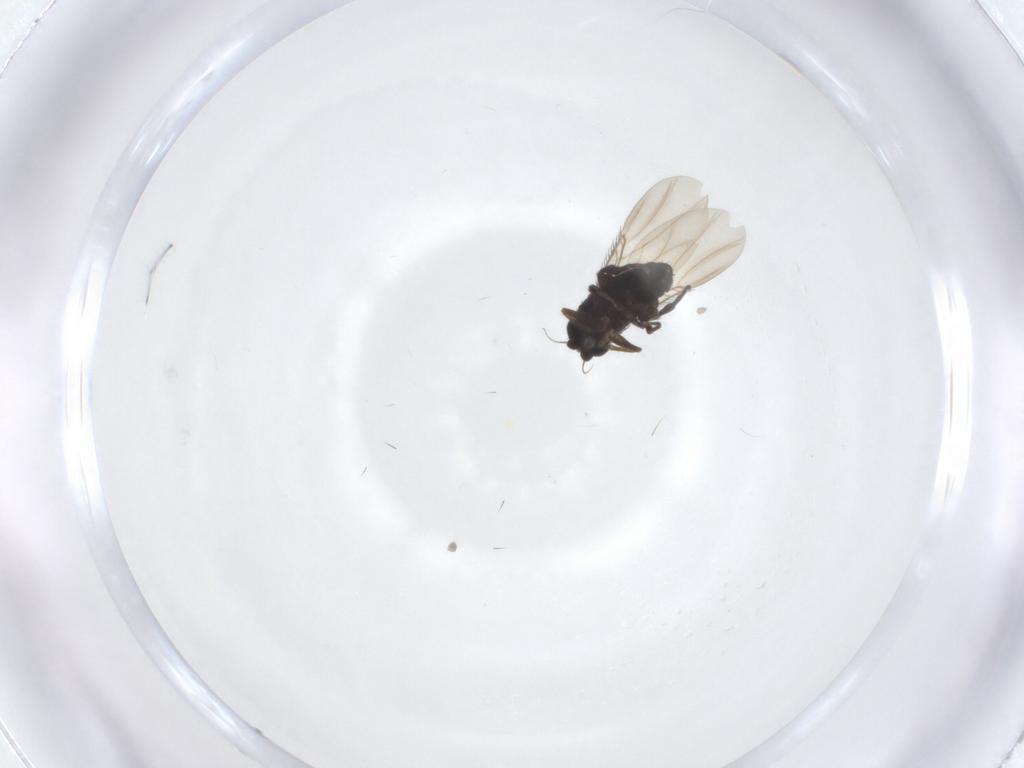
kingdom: Animalia
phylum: Arthropoda
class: Insecta
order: Diptera
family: Phoridae
